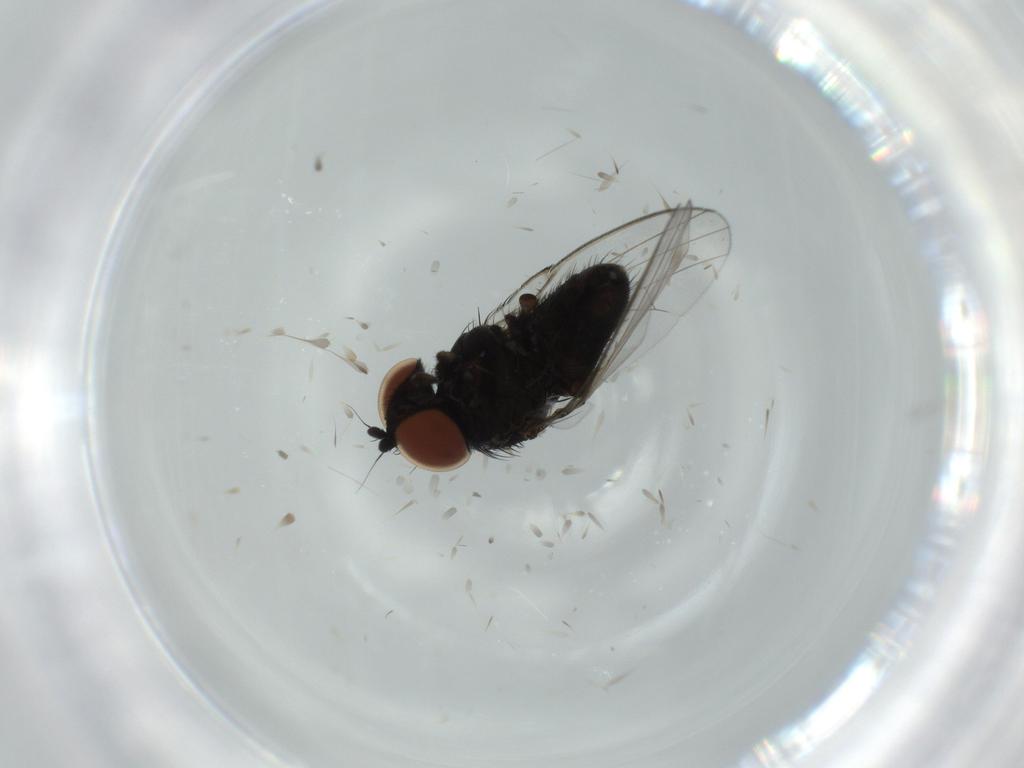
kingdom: Animalia
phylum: Arthropoda
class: Insecta
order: Diptera
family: Milichiidae
